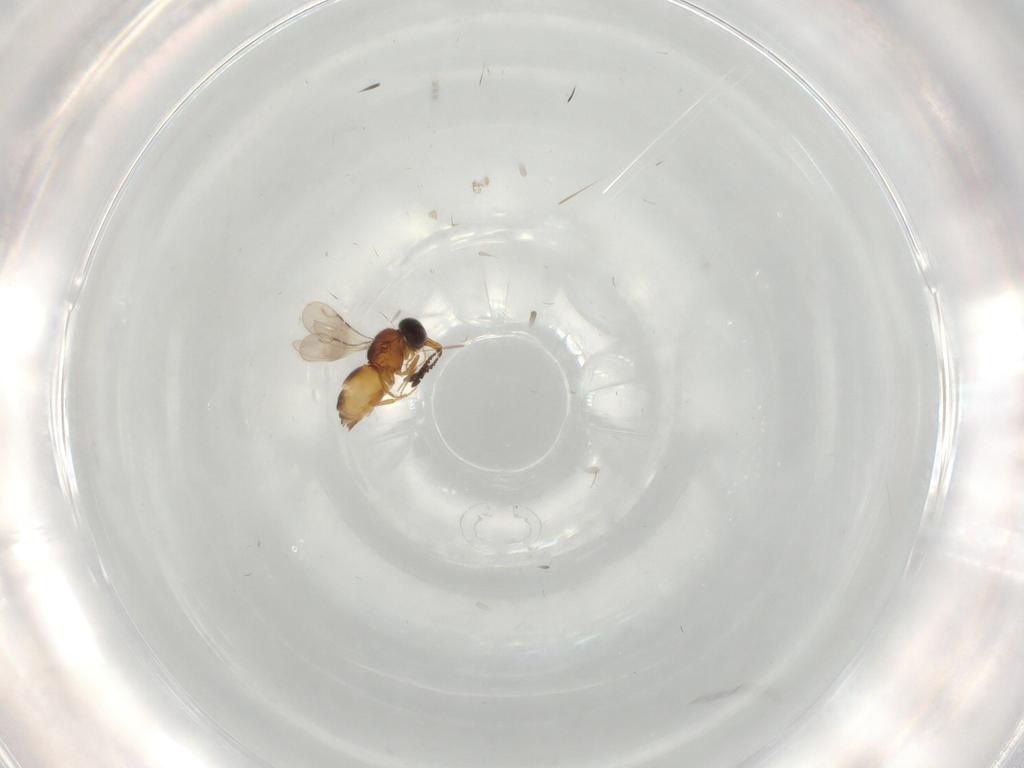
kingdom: Animalia
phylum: Arthropoda
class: Insecta
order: Hymenoptera
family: Ceraphronidae
